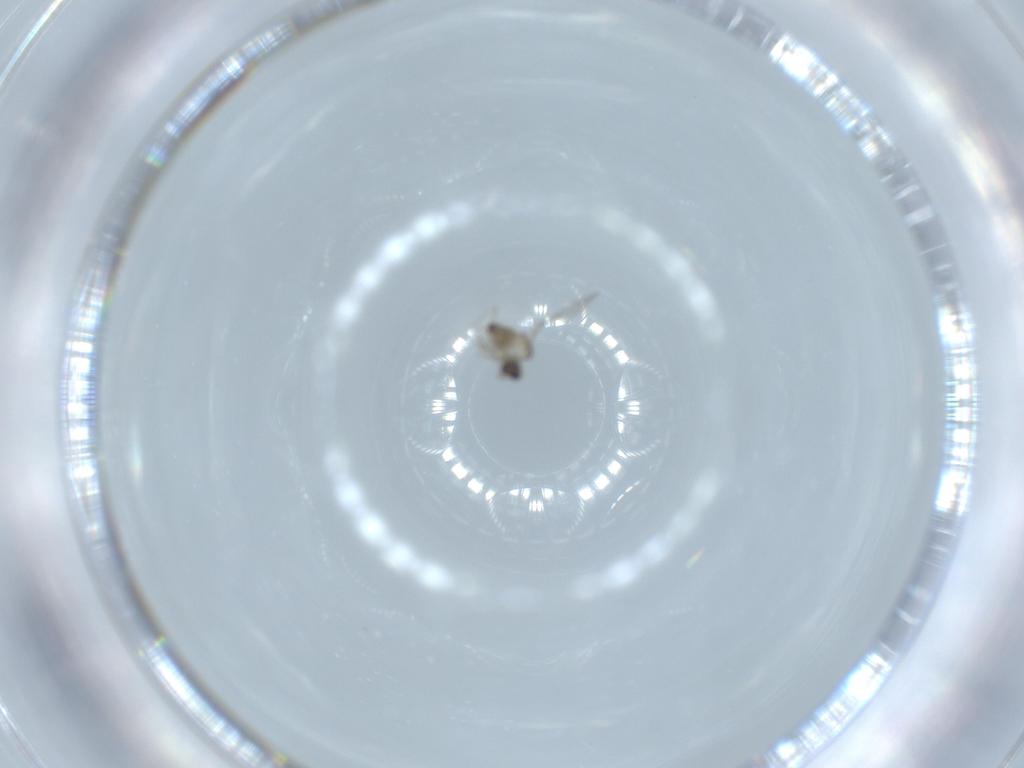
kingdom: Animalia
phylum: Arthropoda
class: Insecta
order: Diptera
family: Cecidomyiidae
